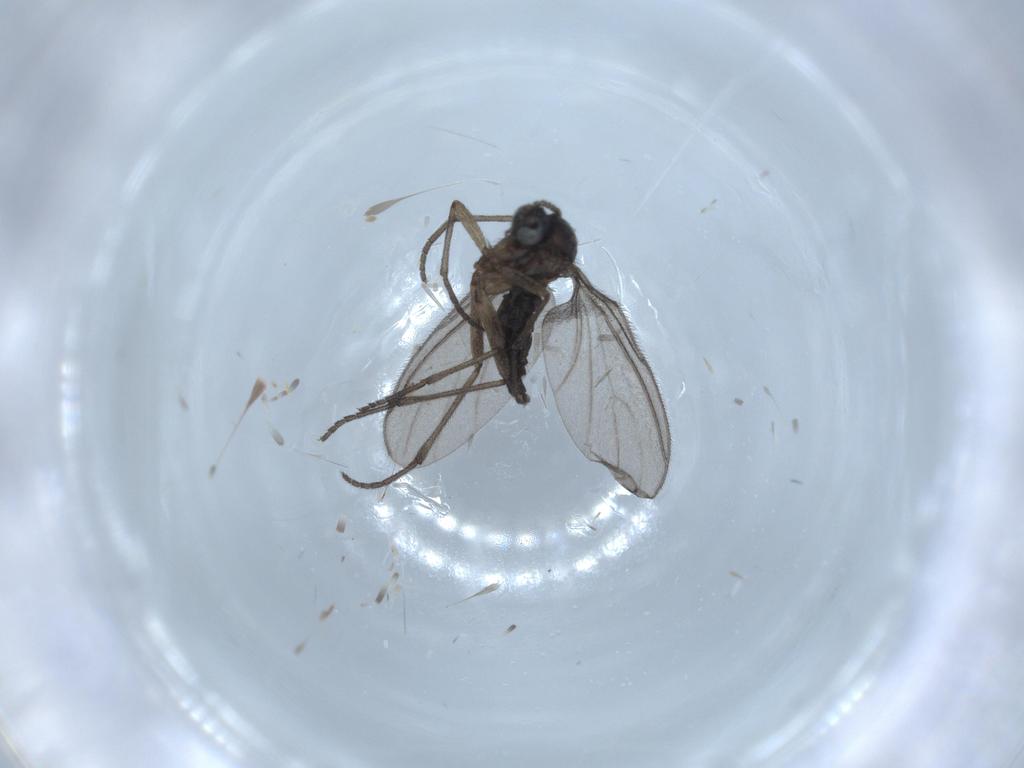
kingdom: Animalia
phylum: Arthropoda
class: Insecta
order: Diptera
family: Sciaridae
